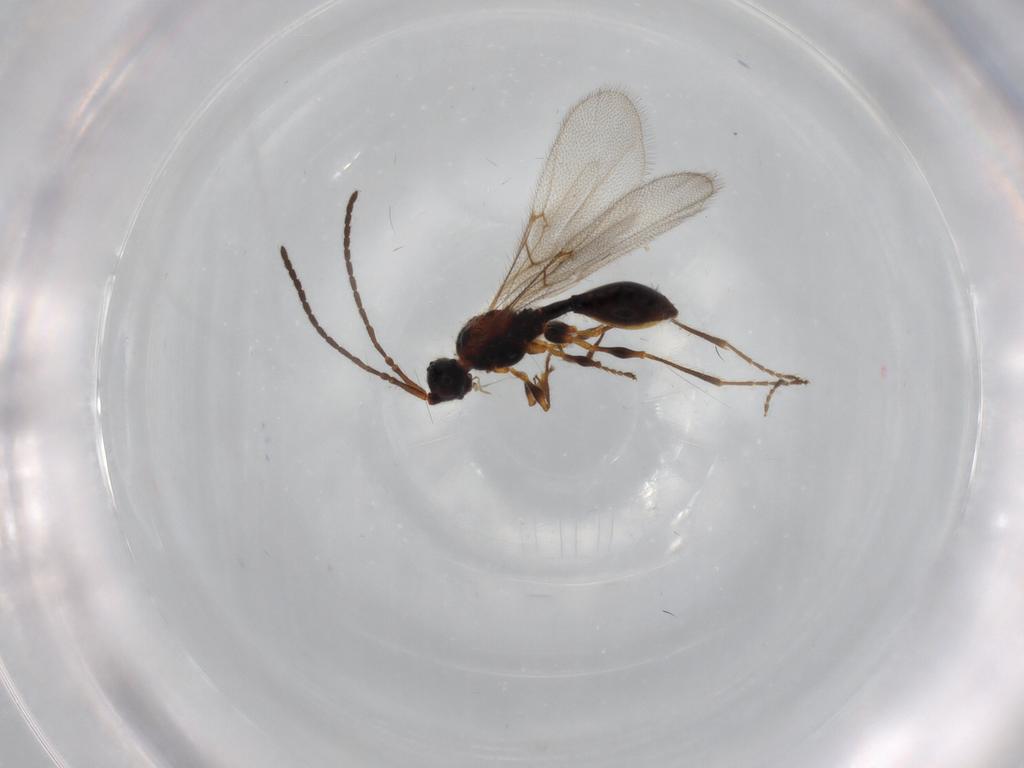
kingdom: Animalia
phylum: Arthropoda
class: Insecta
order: Hymenoptera
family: Diapriidae
